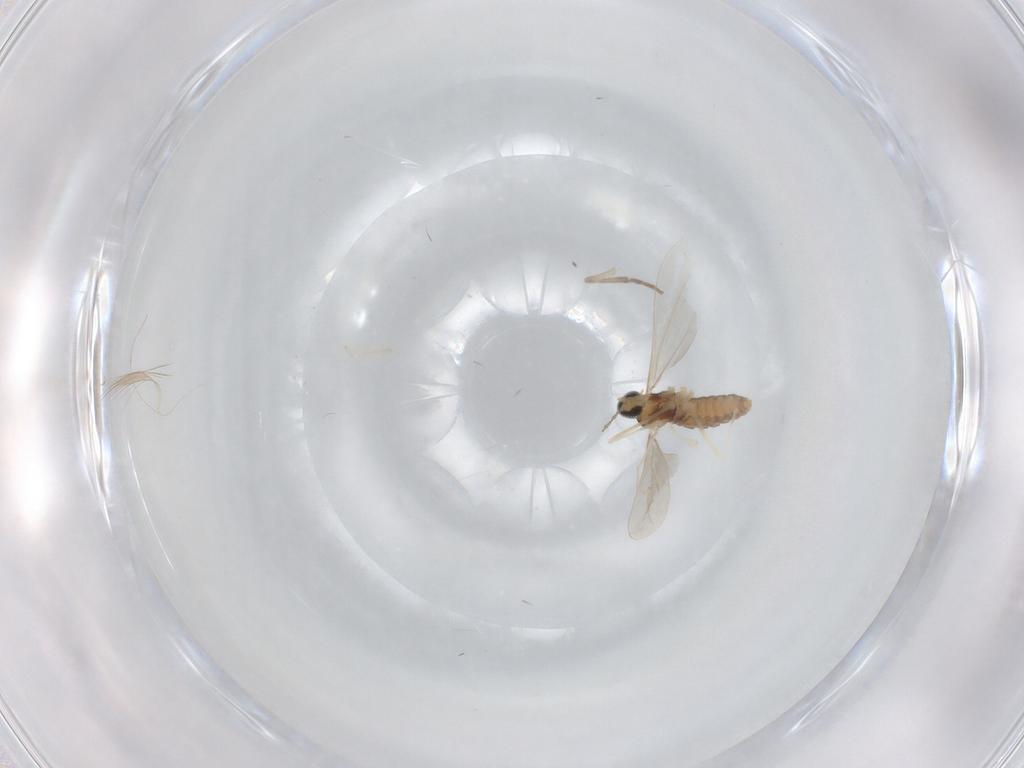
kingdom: Animalia
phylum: Arthropoda
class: Insecta
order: Diptera
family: Cecidomyiidae
